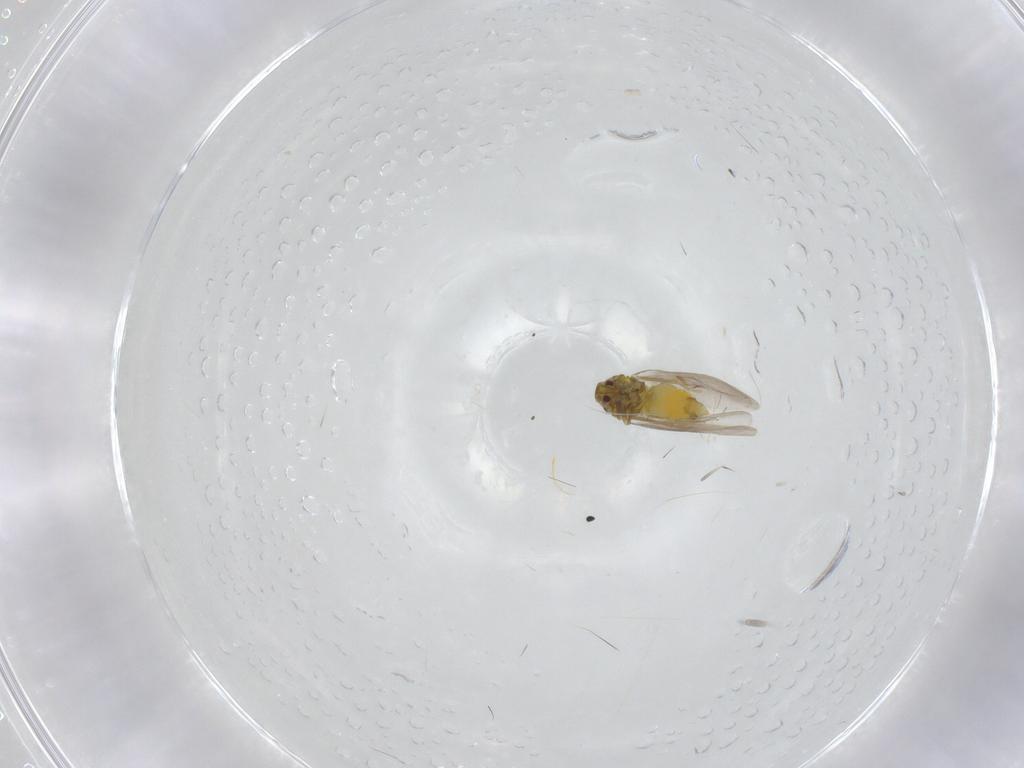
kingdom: Animalia
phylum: Arthropoda
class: Insecta
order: Hemiptera
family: Aleyrodidae
